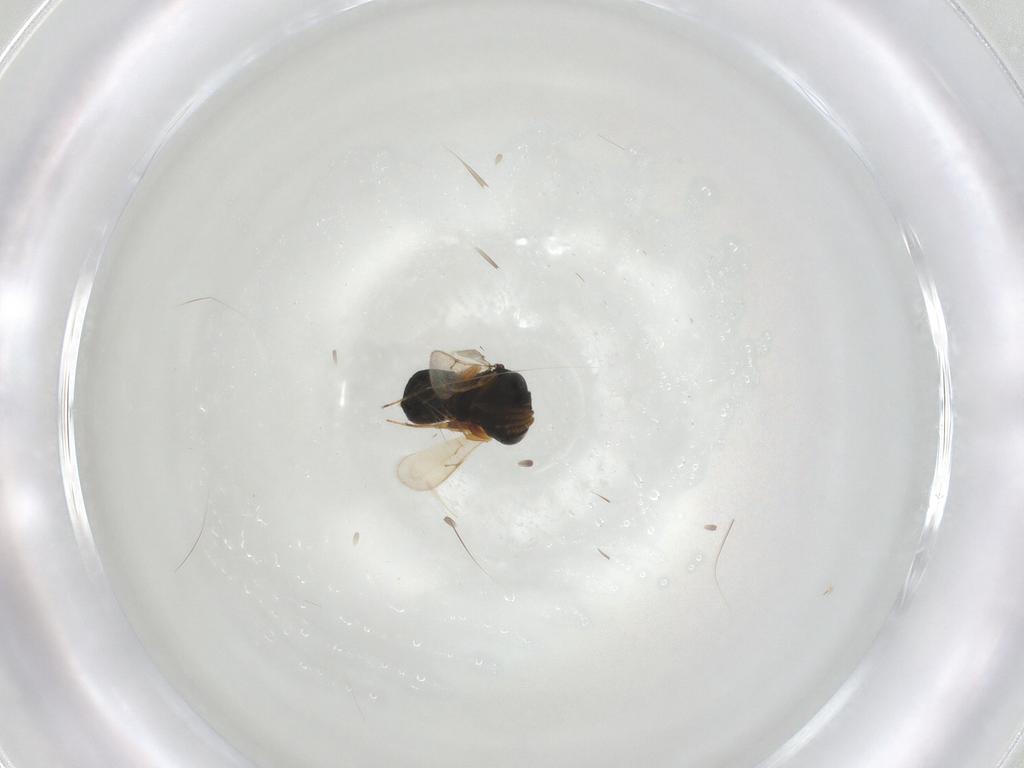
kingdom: Animalia
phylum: Arthropoda
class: Insecta
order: Hymenoptera
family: Scelionidae
